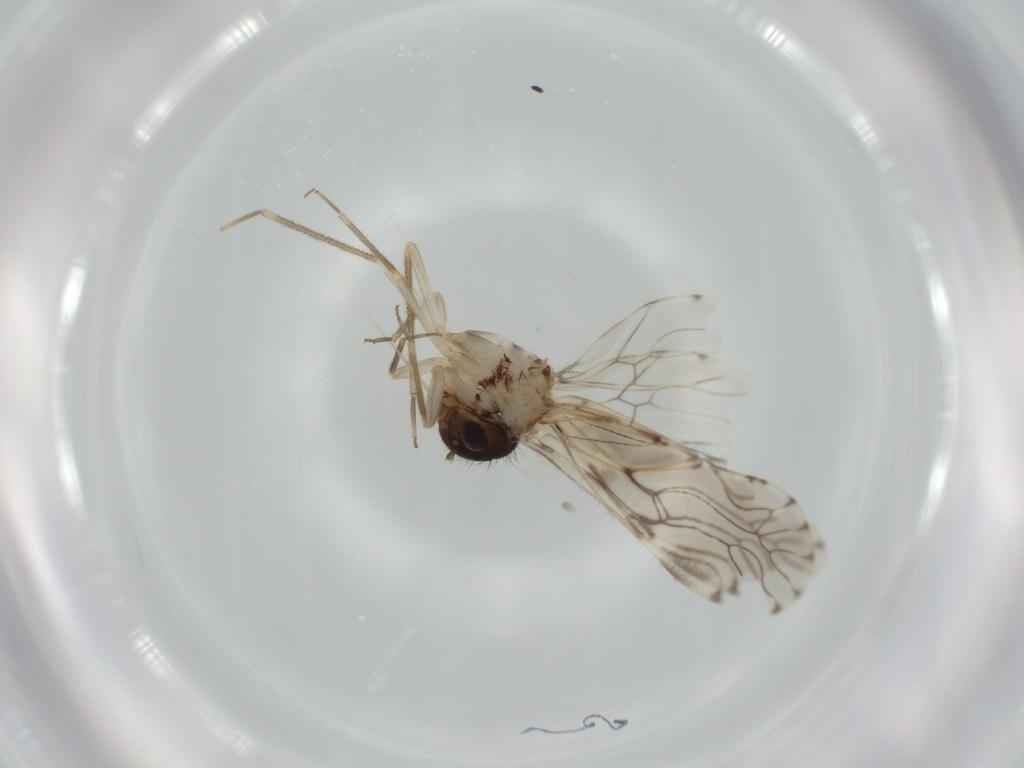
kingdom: Animalia
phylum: Arthropoda
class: Insecta
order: Psocodea
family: Epipsocidae
